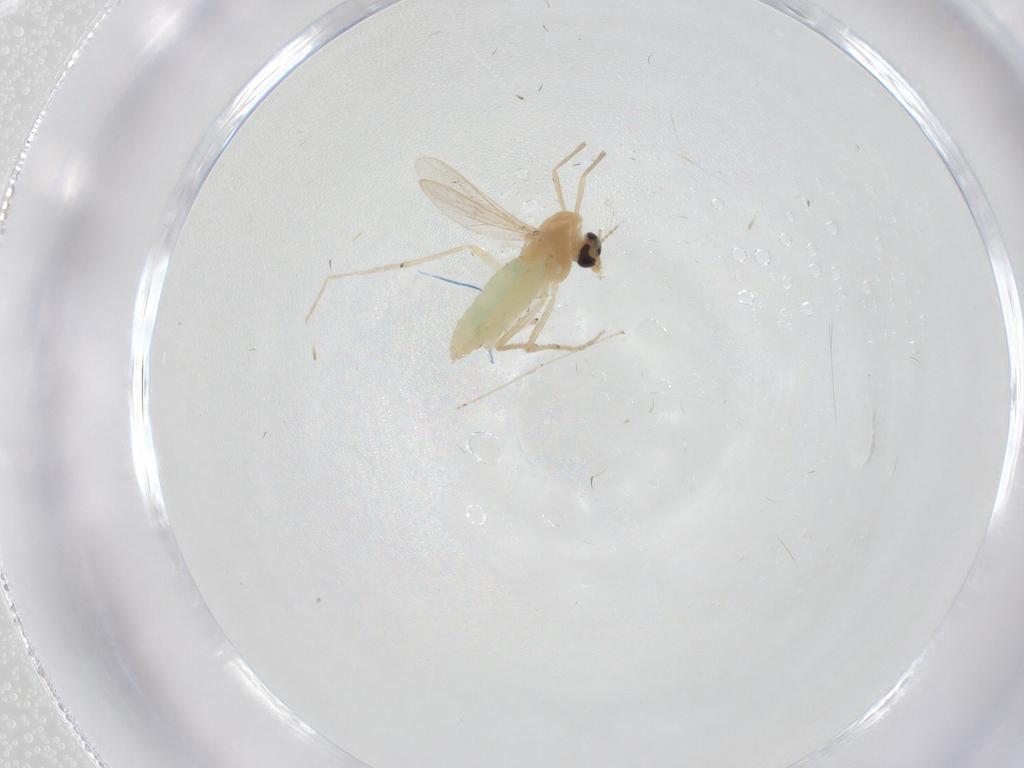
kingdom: Animalia
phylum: Arthropoda
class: Insecta
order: Diptera
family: Chironomidae
